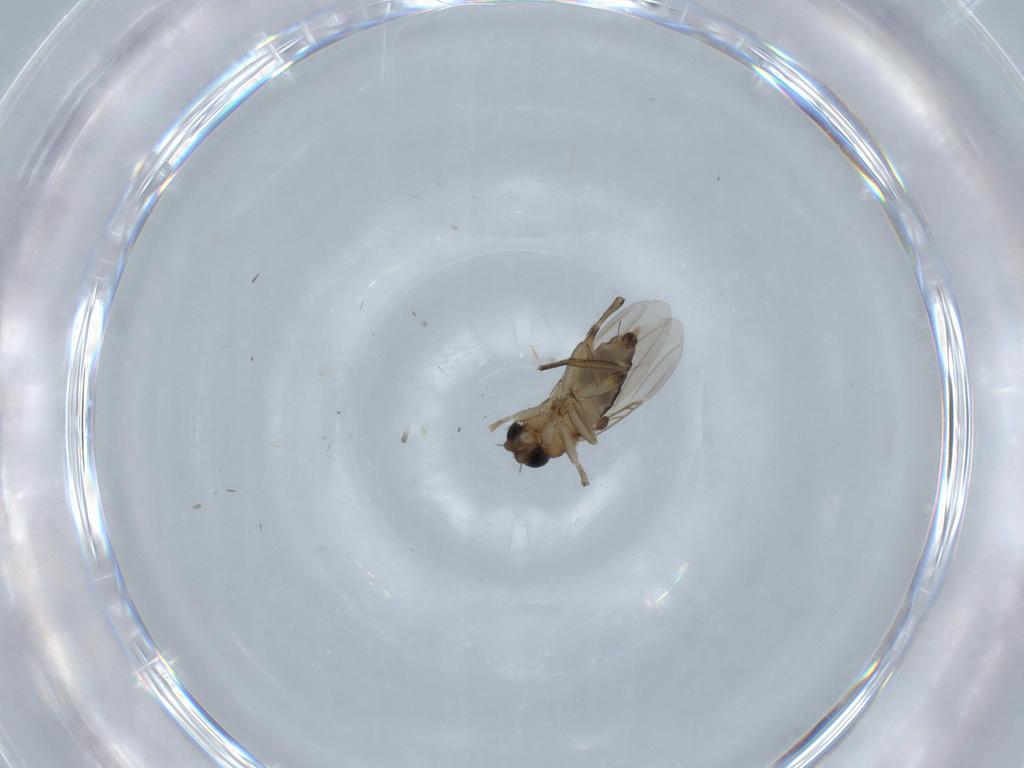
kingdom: Animalia
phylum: Arthropoda
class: Insecta
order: Diptera
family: Phoridae
